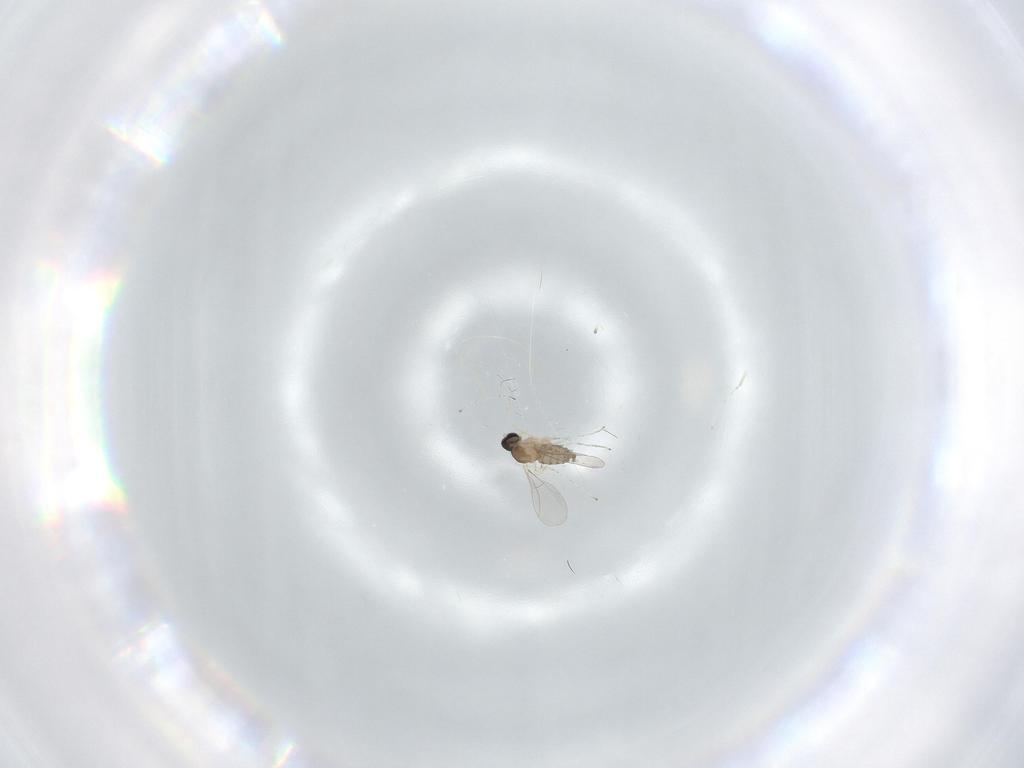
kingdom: Animalia
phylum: Arthropoda
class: Insecta
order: Diptera
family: Cecidomyiidae
